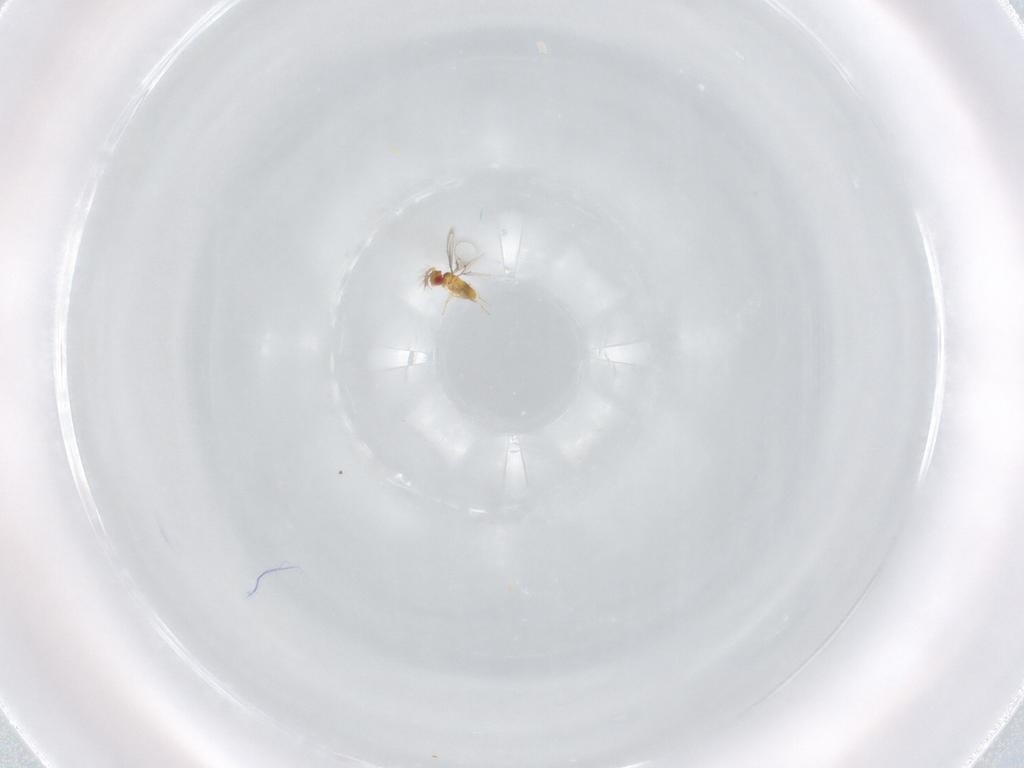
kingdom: Animalia
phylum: Arthropoda
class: Insecta
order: Hymenoptera
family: Trichogrammatidae
